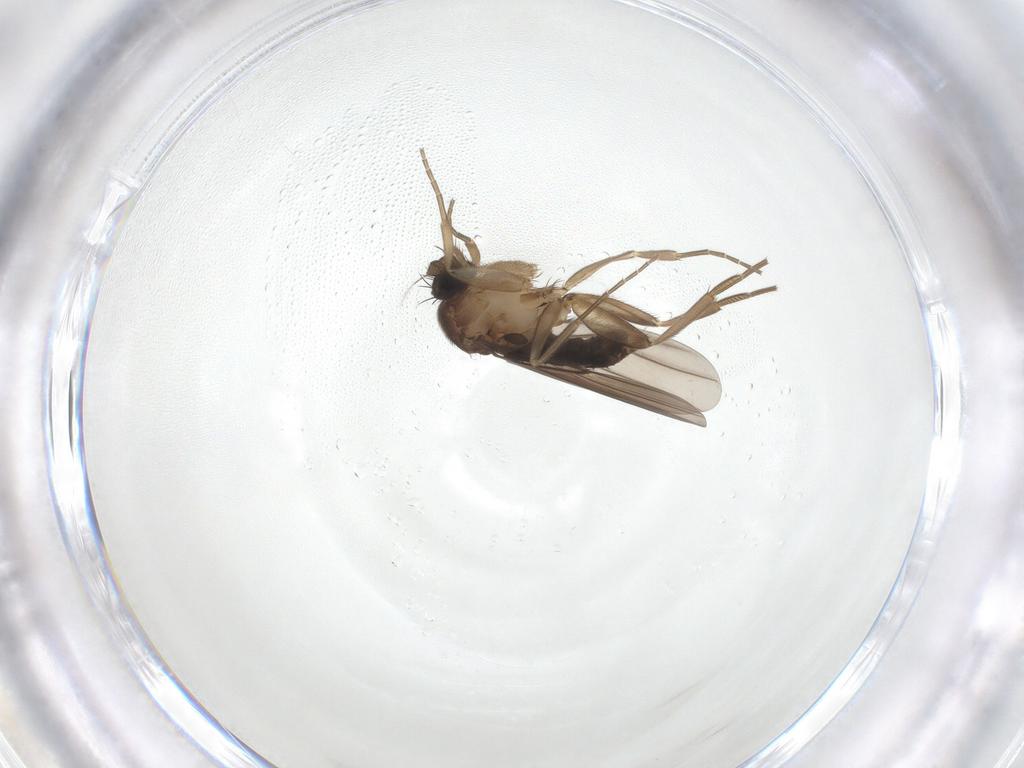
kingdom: Animalia
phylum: Arthropoda
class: Insecta
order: Diptera
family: Phoridae
